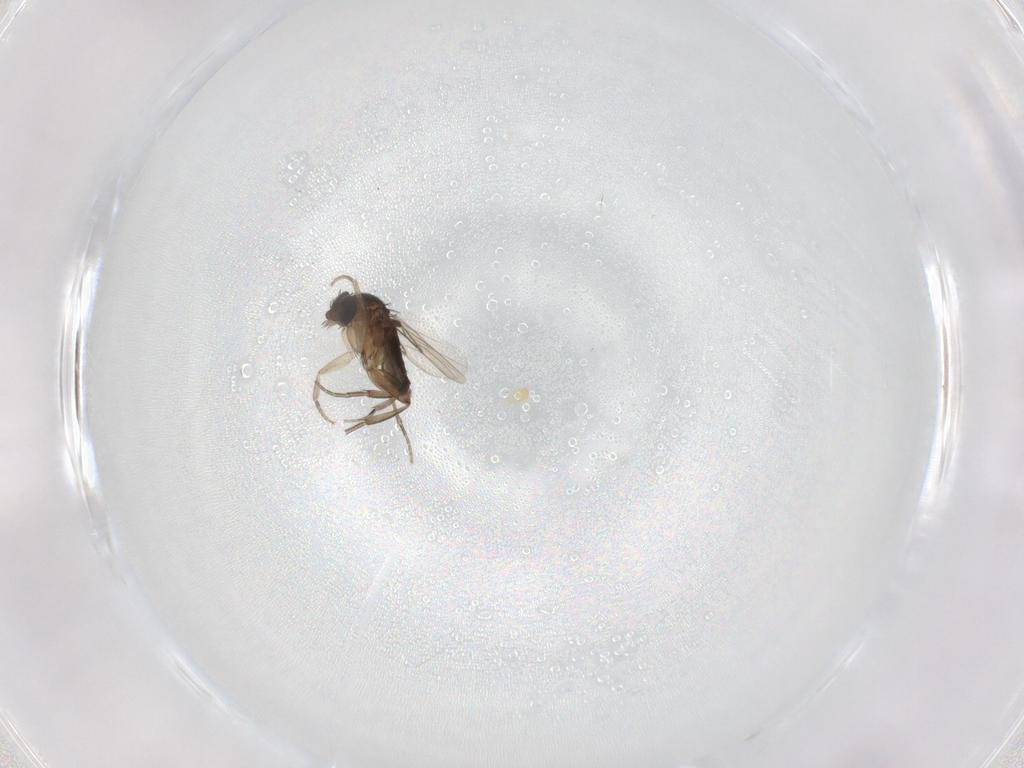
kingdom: Animalia
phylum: Arthropoda
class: Insecta
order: Diptera
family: Phoridae
